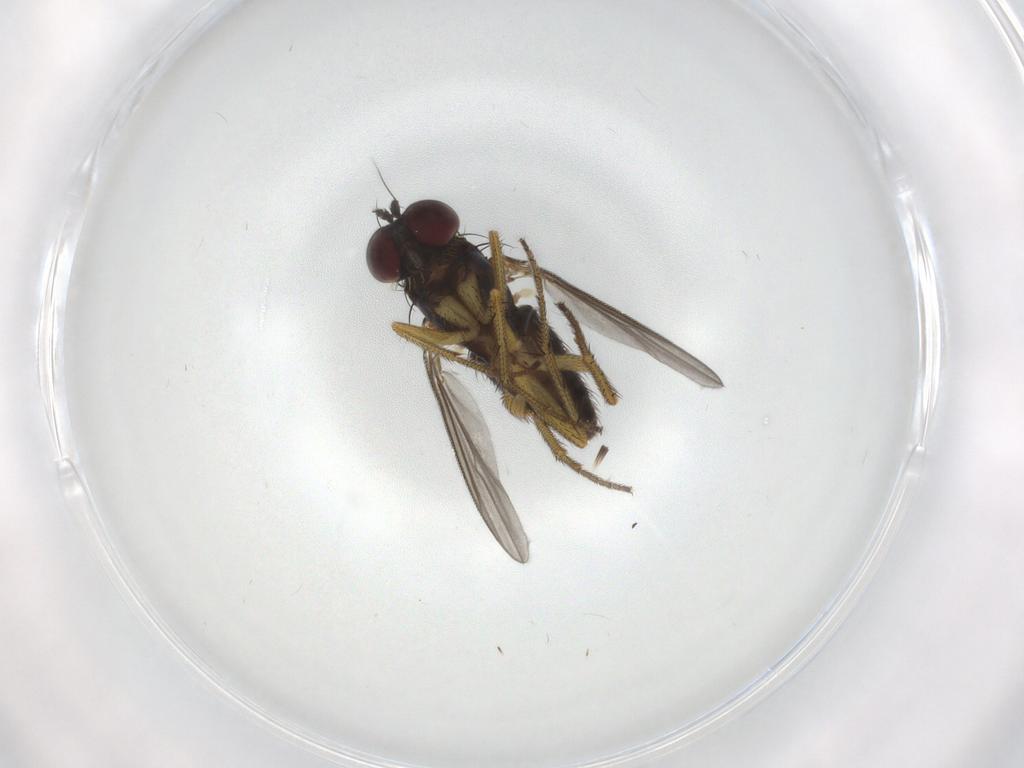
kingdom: Animalia
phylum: Arthropoda
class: Insecta
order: Diptera
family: Dolichopodidae
